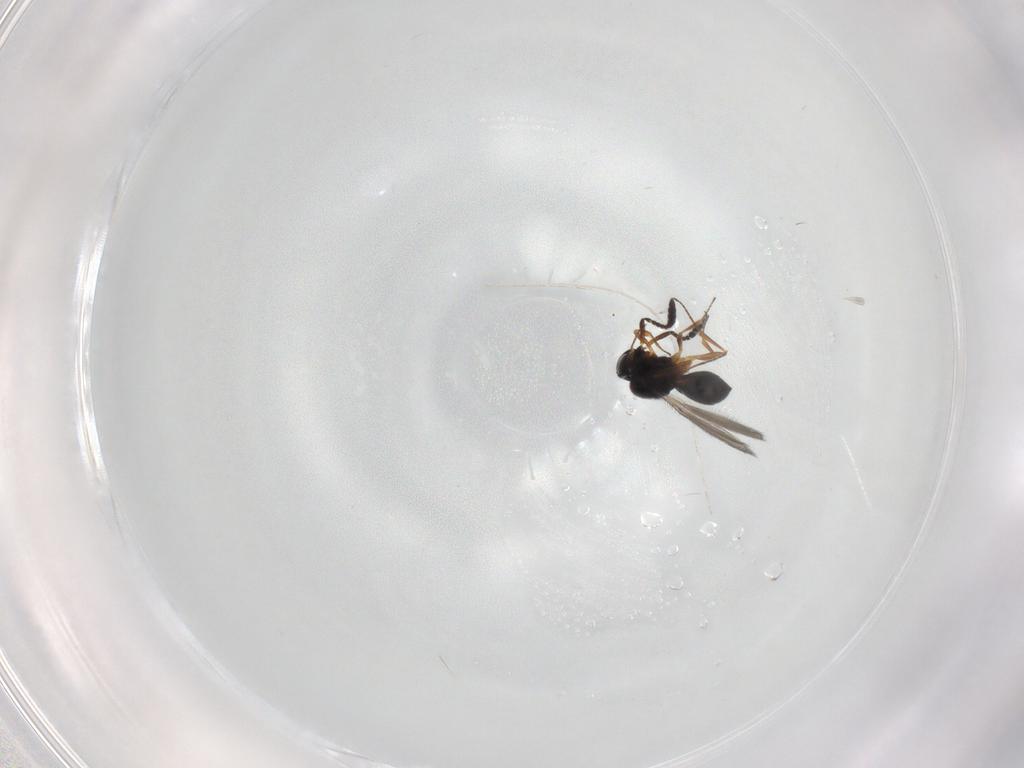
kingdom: Animalia
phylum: Arthropoda
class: Insecta
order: Hymenoptera
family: Scelionidae
